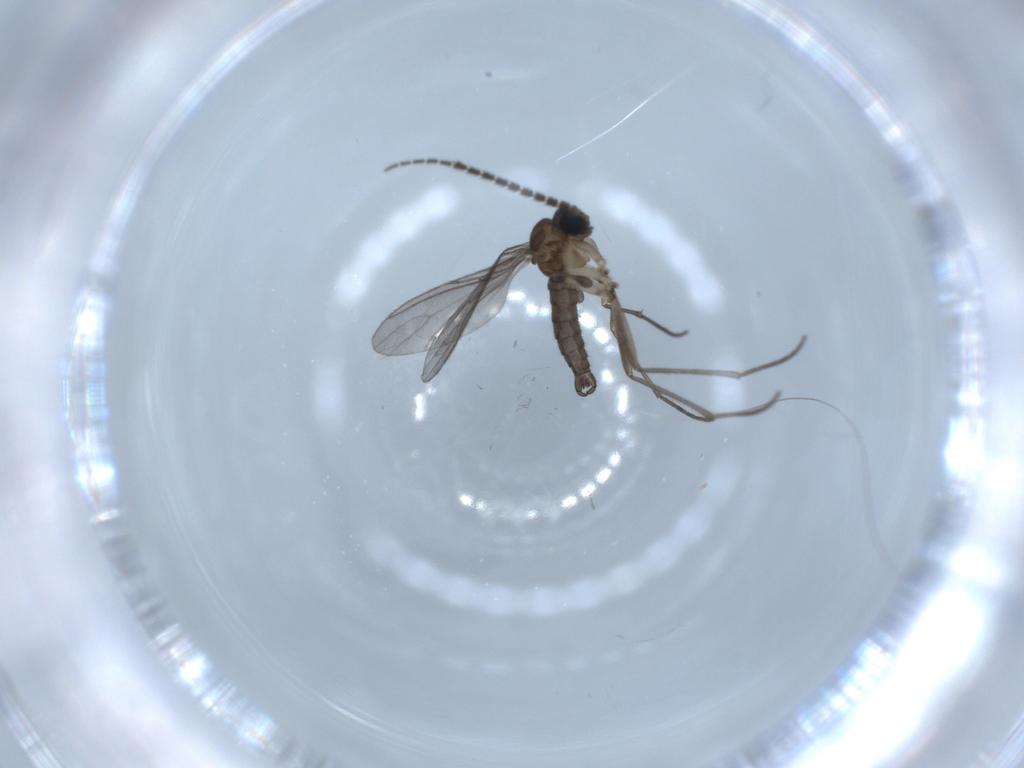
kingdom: Animalia
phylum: Arthropoda
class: Insecta
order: Diptera
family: Sciaridae
